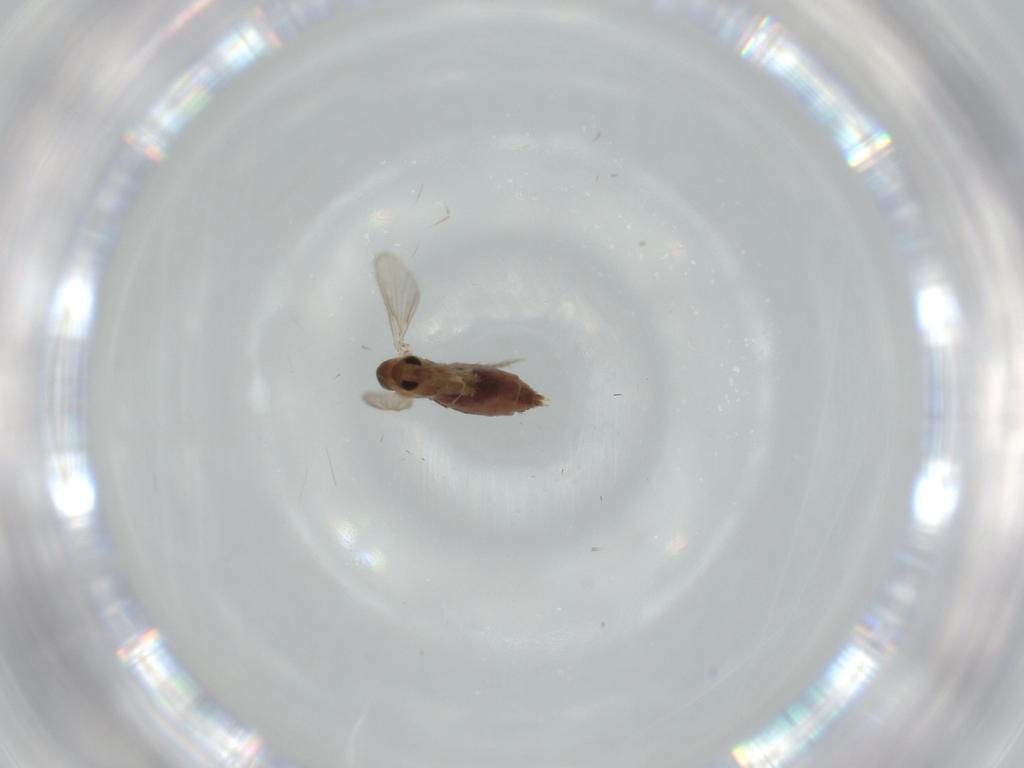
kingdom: Animalia
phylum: Arthropoda
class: Insecta
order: Diptera
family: Psychodidae
